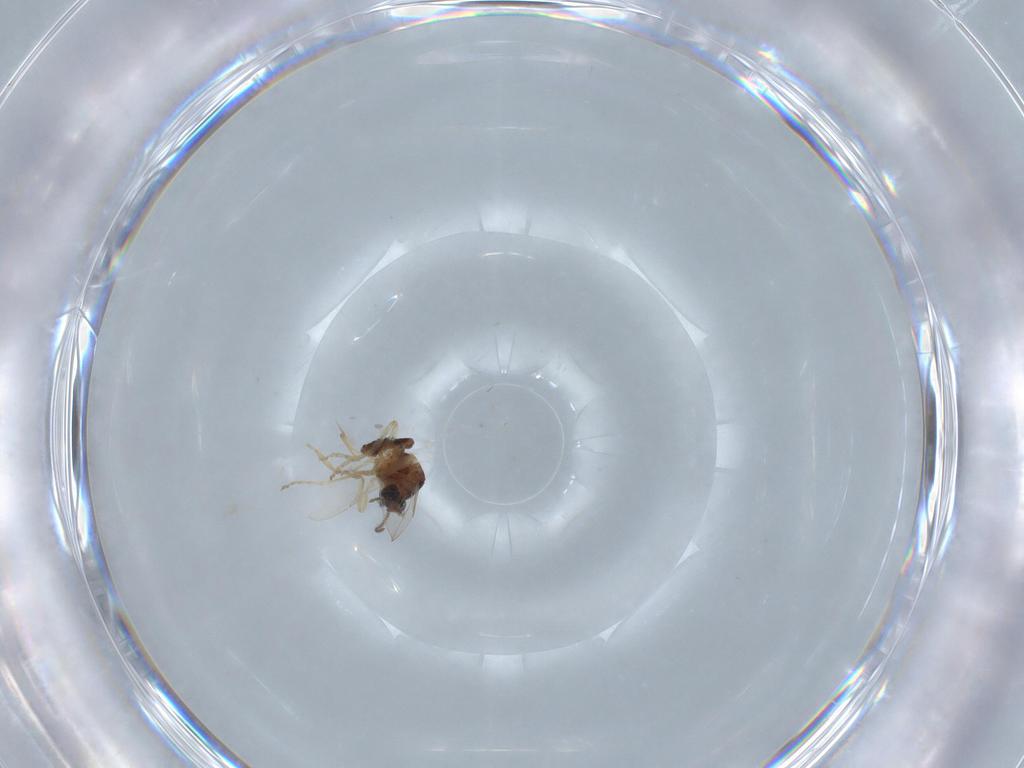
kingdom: Animalia
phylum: Arthropoda
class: Insecta
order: Diptera
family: Ceratopogonidae
